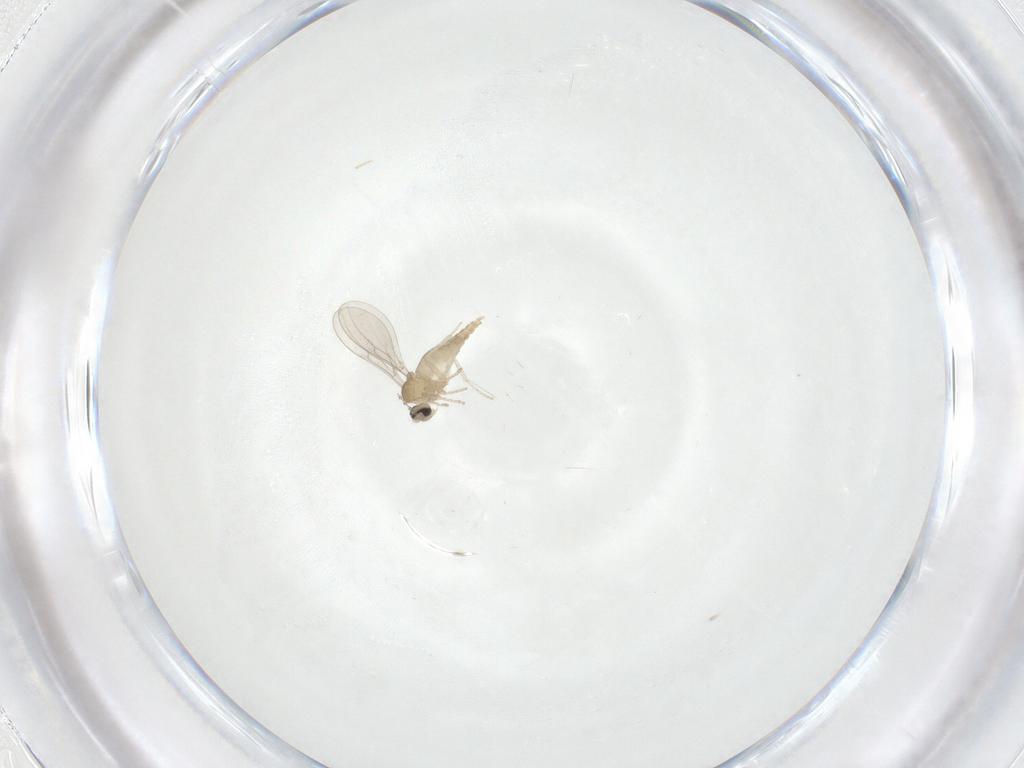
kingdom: Animalia
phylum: Arthropoda
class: Insecta
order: Diptera
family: Cecidomyiidae
